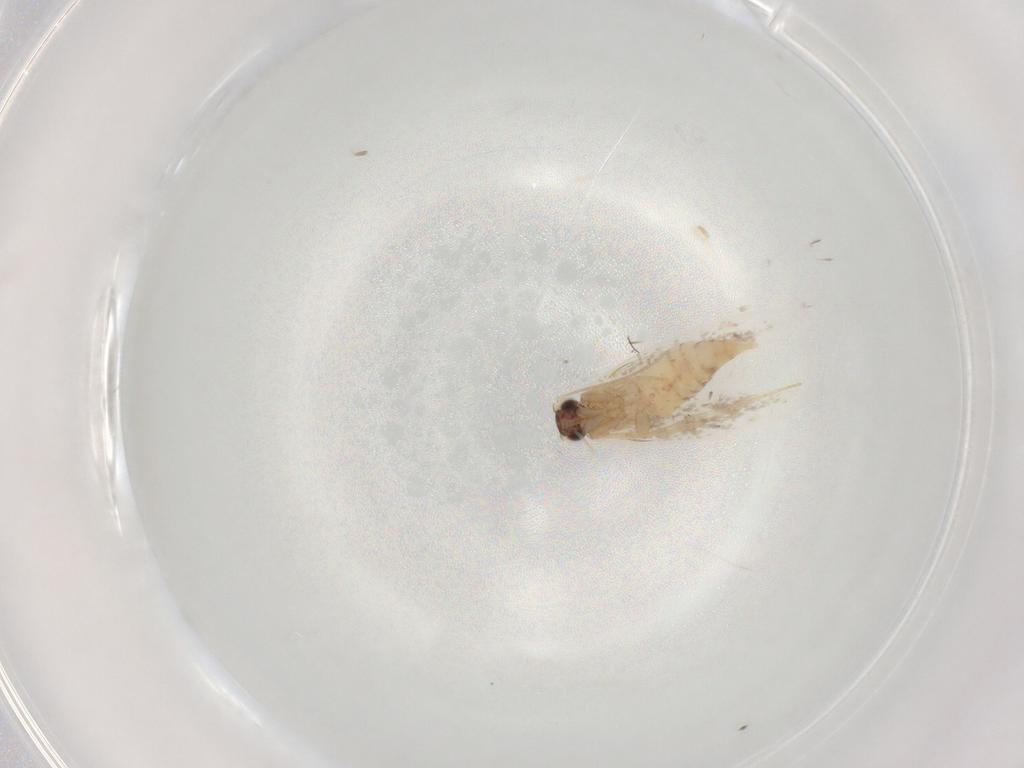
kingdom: Animalia
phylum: Arthropoda
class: Insecta
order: Lepidoptera
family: Tineidae
